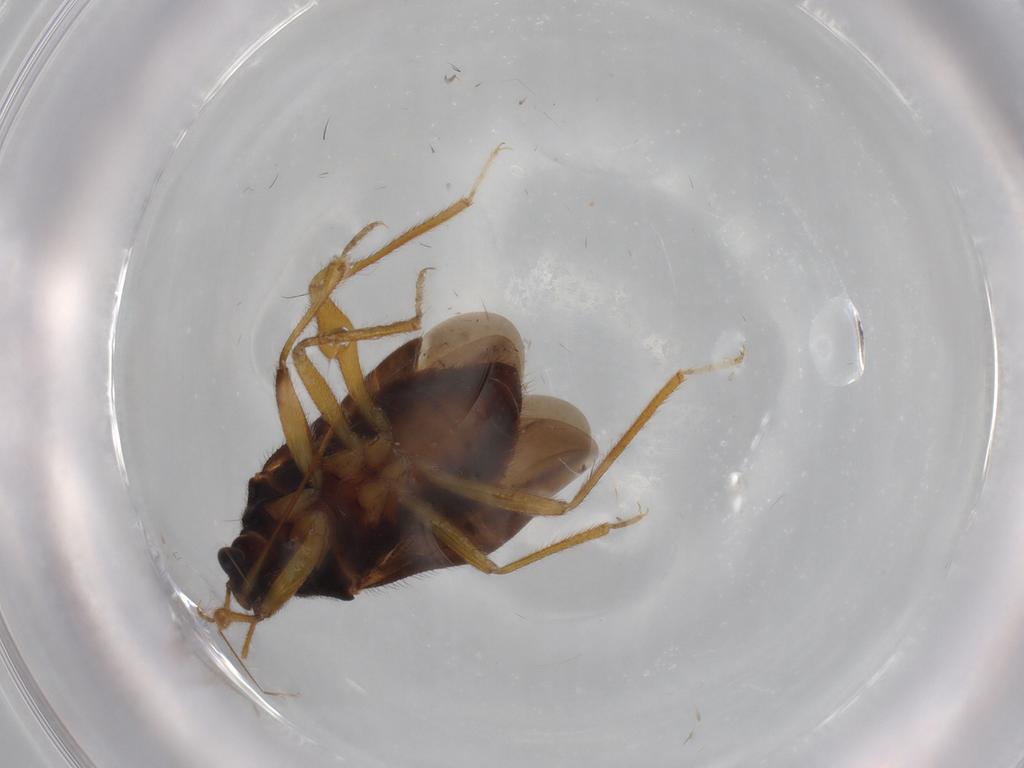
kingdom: Animalia
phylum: Arthropoda
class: Insecta
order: Hemiptera
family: Anthocoridae
